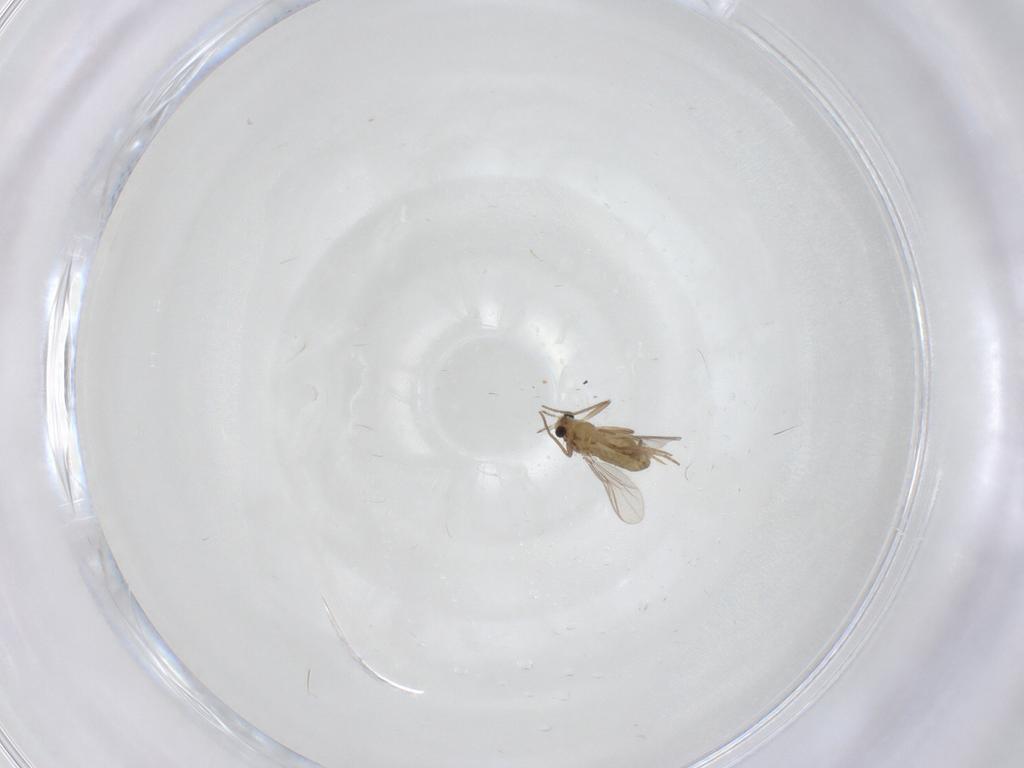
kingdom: Animalia
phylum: Arthropoda
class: Insecta
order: Diptera
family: Chironomidae
